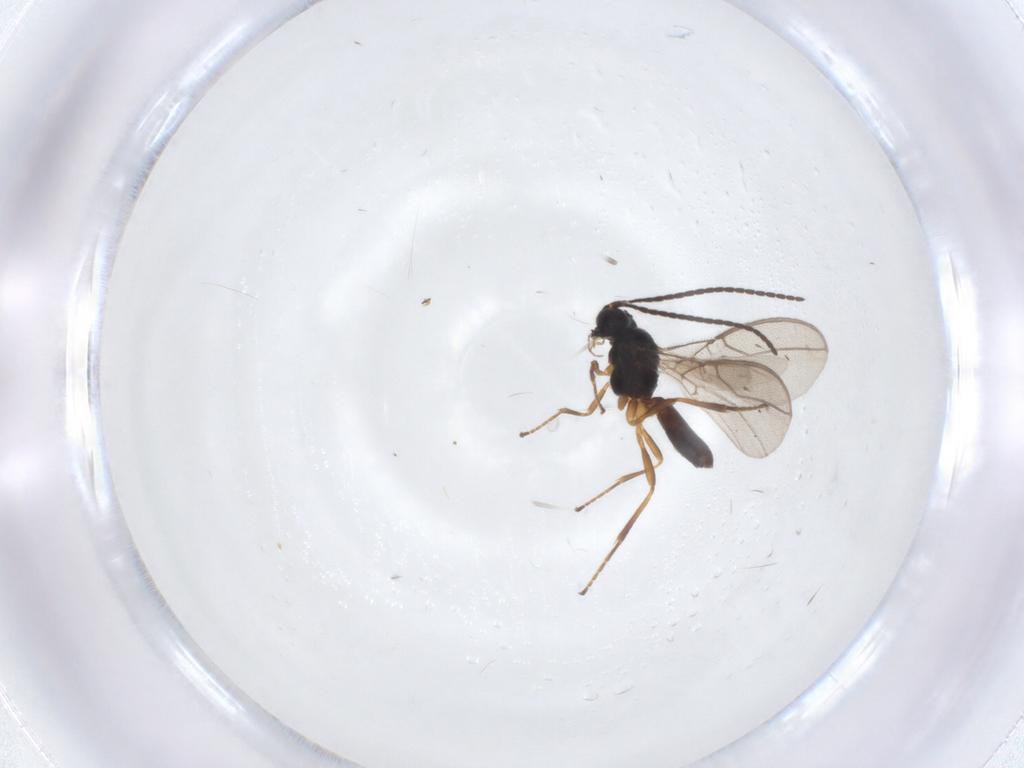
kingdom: Animalia
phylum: Arthropoda
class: Insecta
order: Hymenoptera
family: Braconidae
